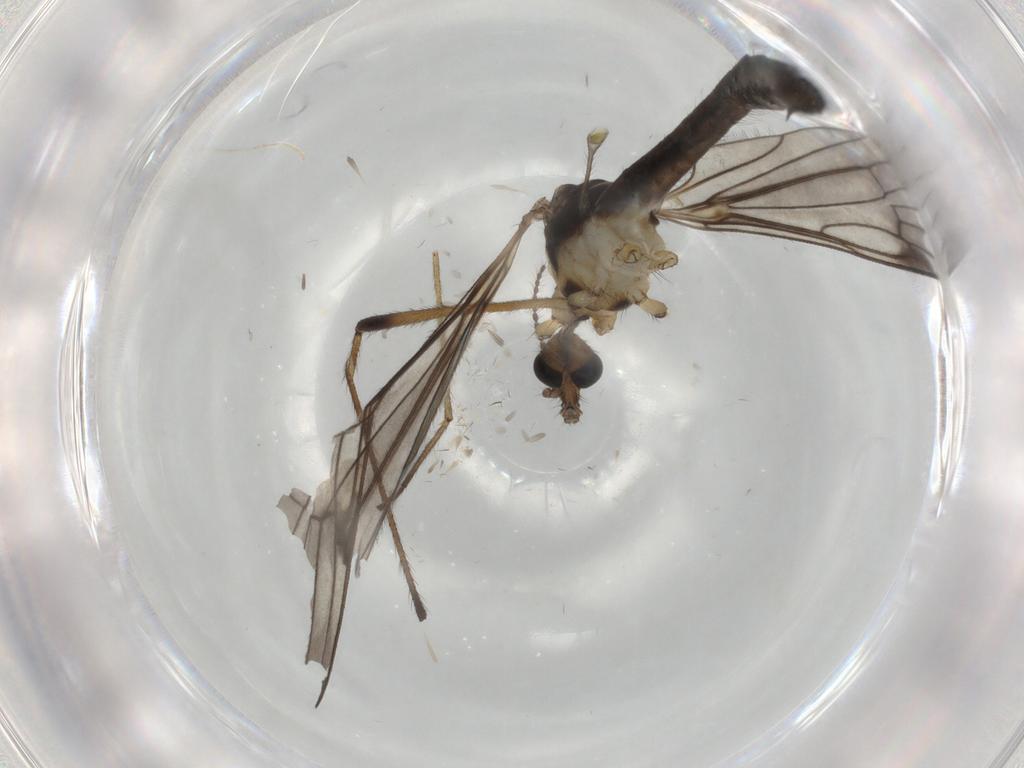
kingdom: Animalia
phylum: Arthropoda
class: Insecta
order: Diptera
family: Limoniidae
